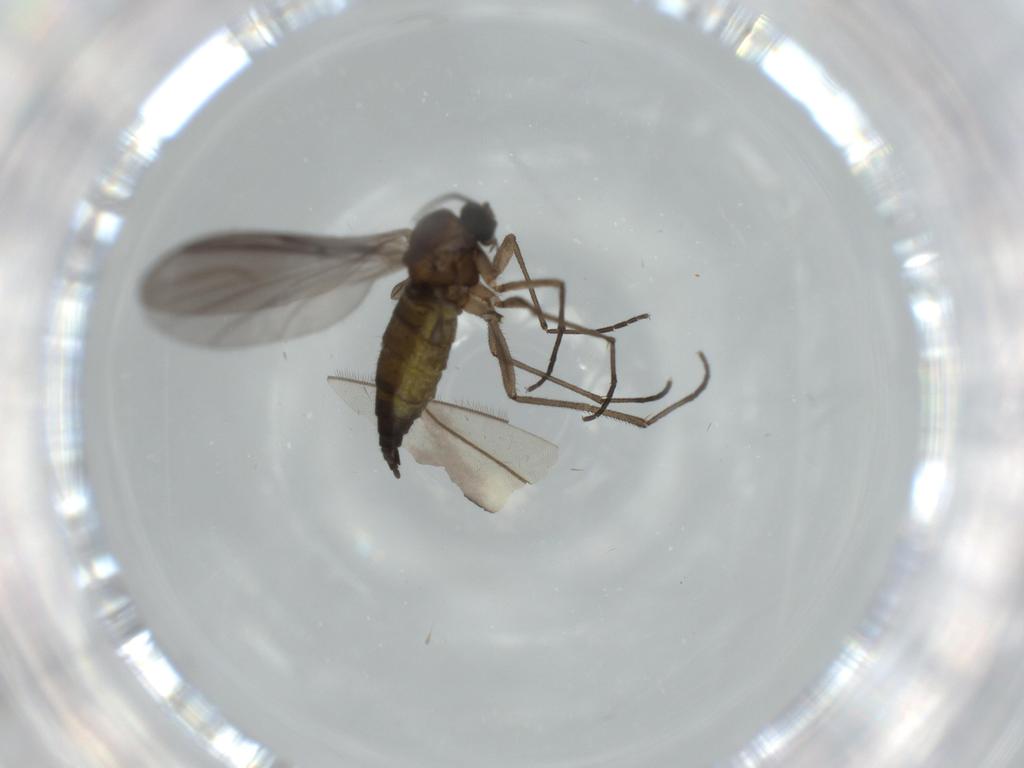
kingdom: Animalia
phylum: Arthropoda
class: Insecta
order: Diptera
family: Sciaridae
